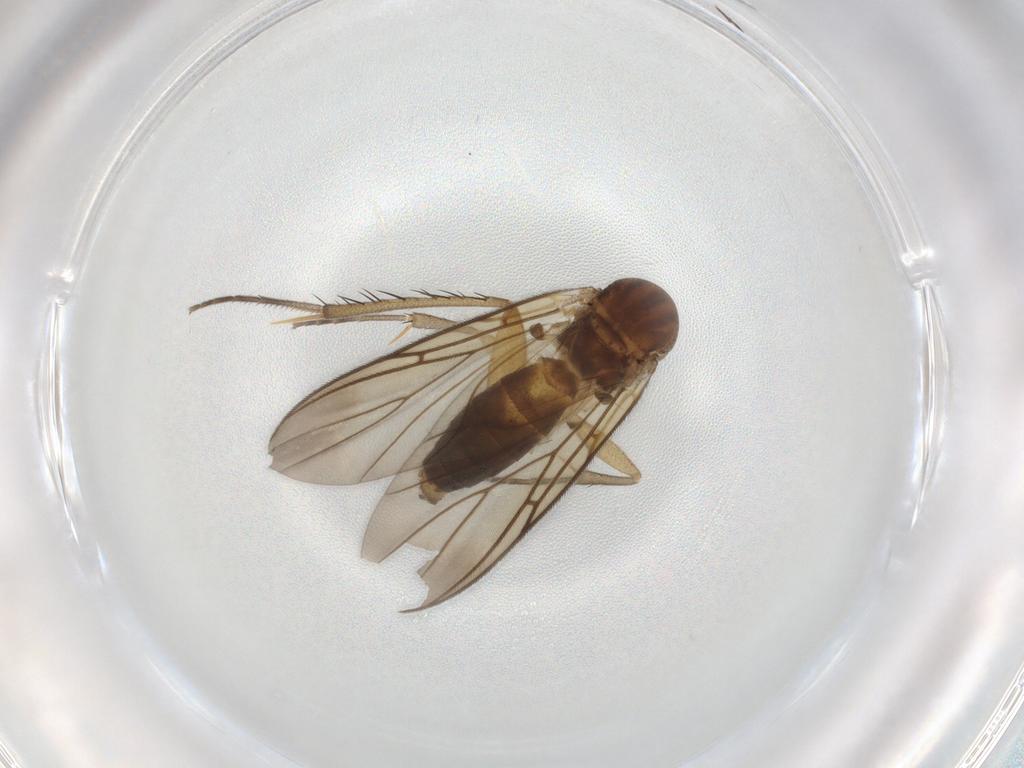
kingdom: Animalia
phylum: Arthropoda
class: Insecta
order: Diptera
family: Mycetophilidae
